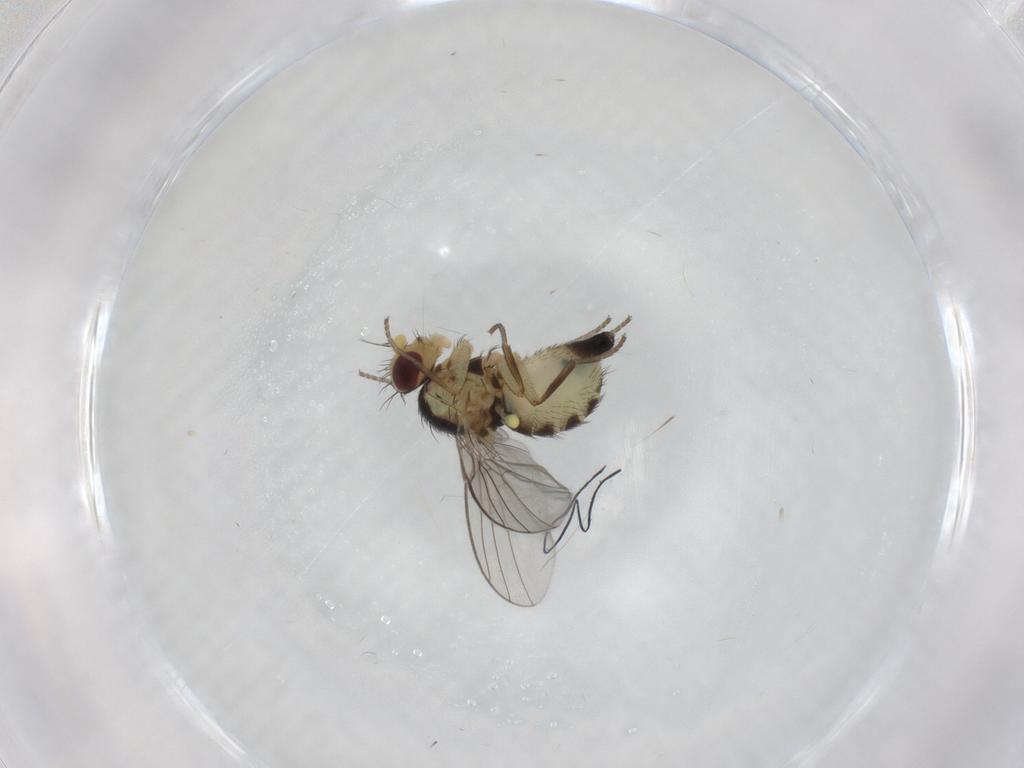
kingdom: Animalia
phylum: Arthropoda
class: Insecta
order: Diptera
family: Agromyzidae
